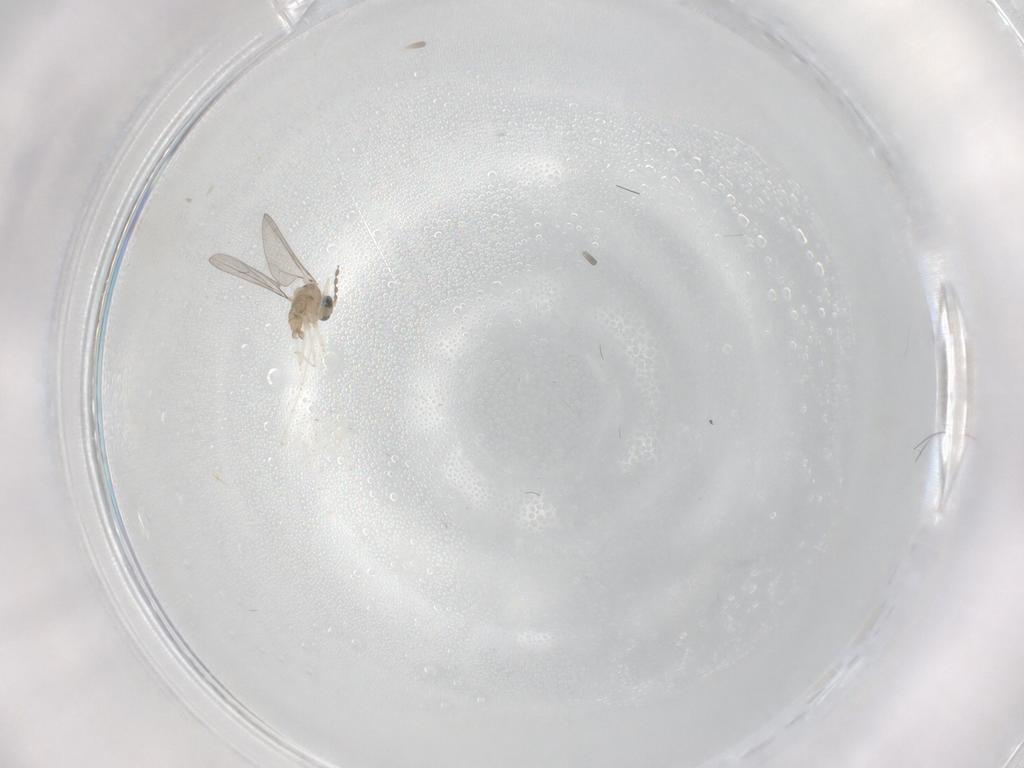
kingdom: Animalia
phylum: Arthropoda
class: Insecta
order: Diptera
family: Cecidomyiidae
